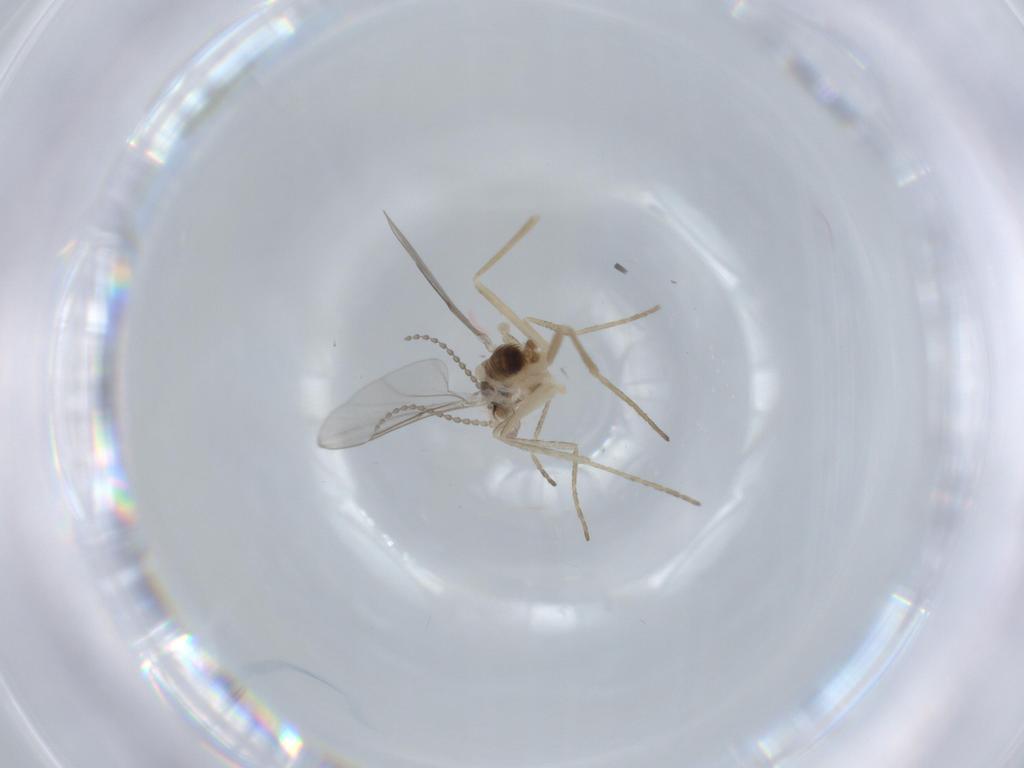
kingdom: Animalia
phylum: Arthropoda
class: Insecta
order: Diptera
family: Cecidomyiidae
